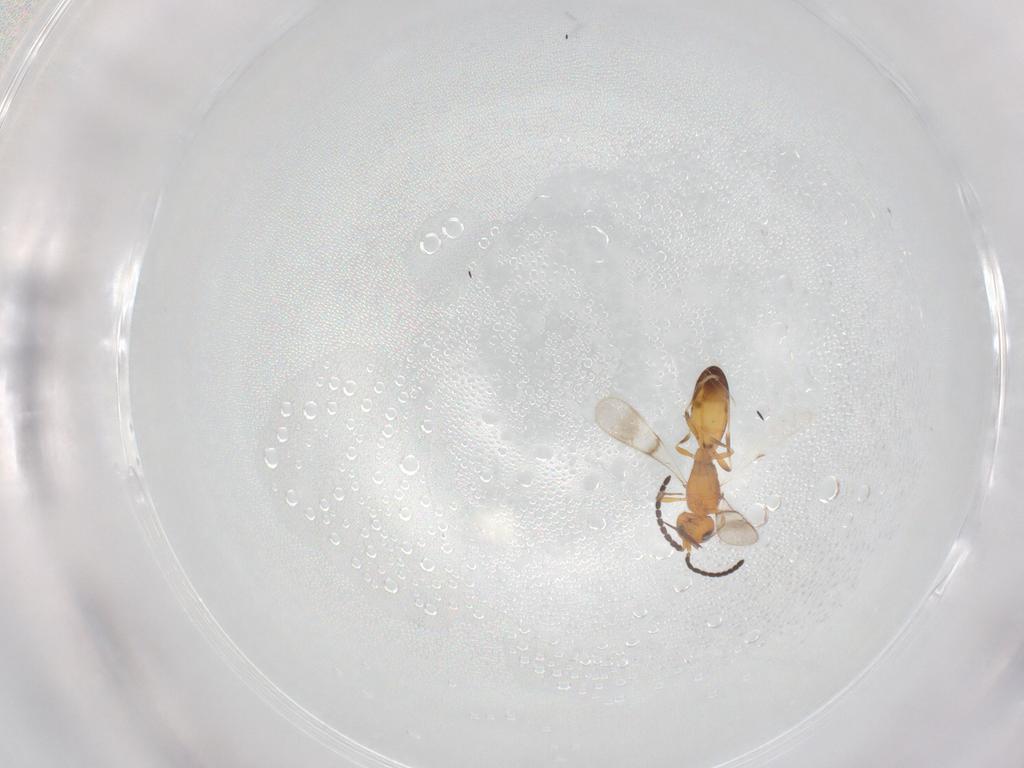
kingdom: Animalia
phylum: Arthropoda
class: Insecta
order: Hymenoptera
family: Scelionidae
